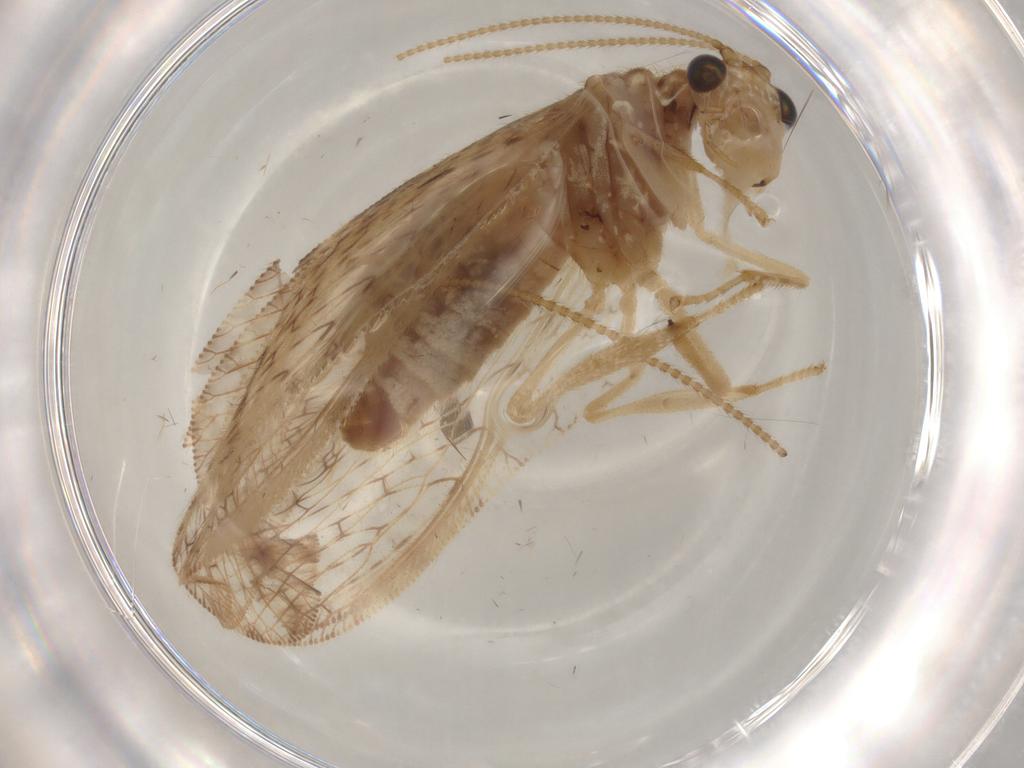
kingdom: Animalia
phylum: Arthropoda
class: Insecta
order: Neuroptera
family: Hemerobiidae
